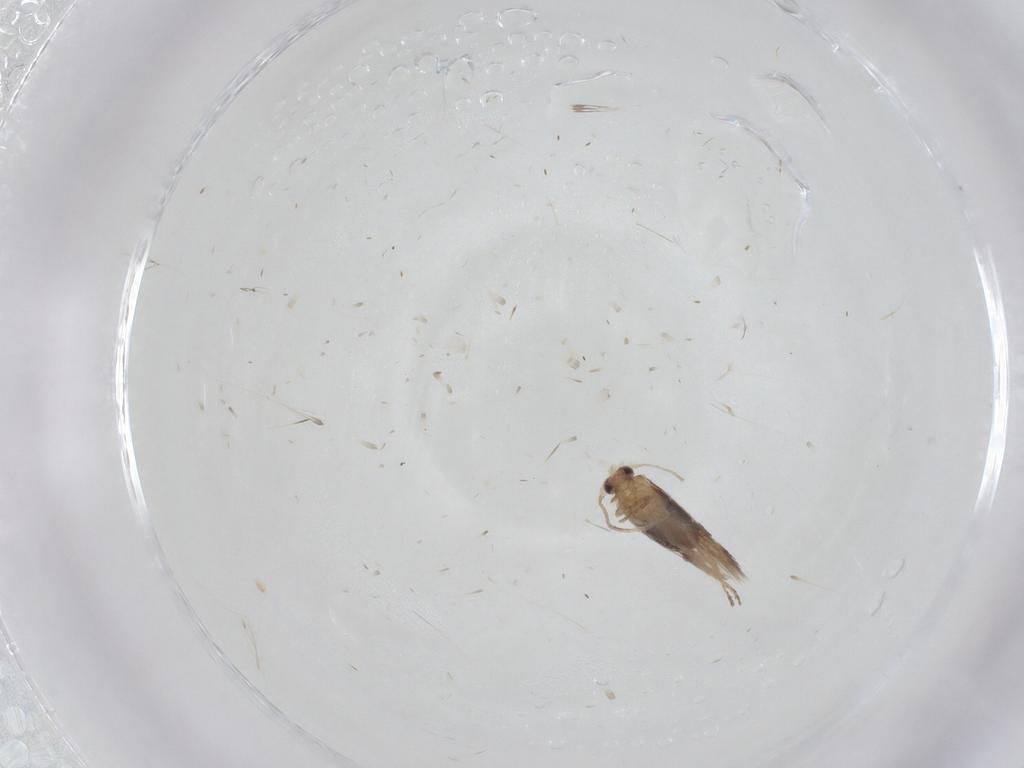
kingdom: Animalia
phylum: Arthropoda
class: Insecta
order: Lepidoptera
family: Nepticulidae
